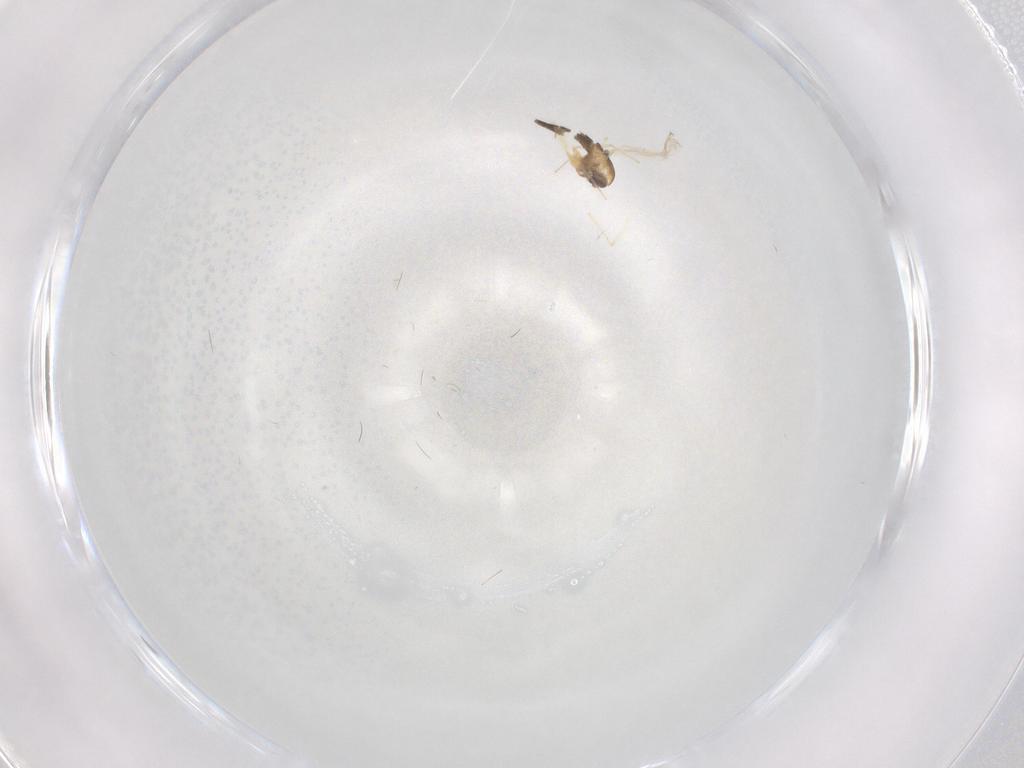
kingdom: Animalia
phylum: Arthropoda
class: Insecta
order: Diptera
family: Chironomidae
